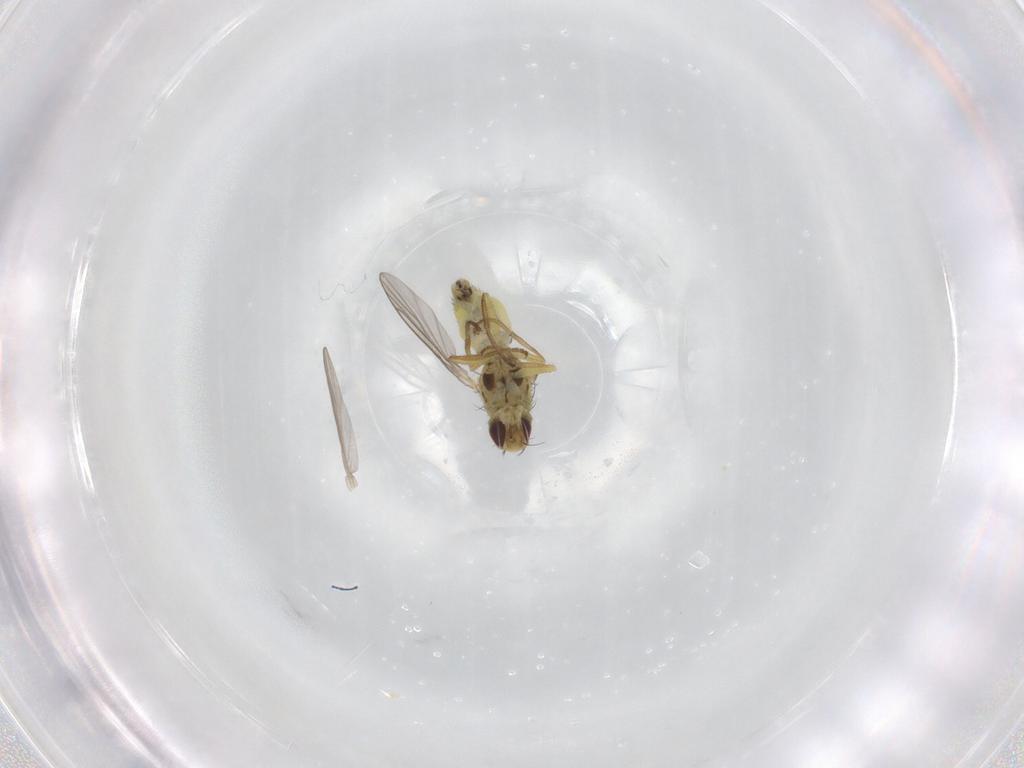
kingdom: Animalia
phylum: Arthropoda
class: Insecta
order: Diptera
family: Agromyzidae
